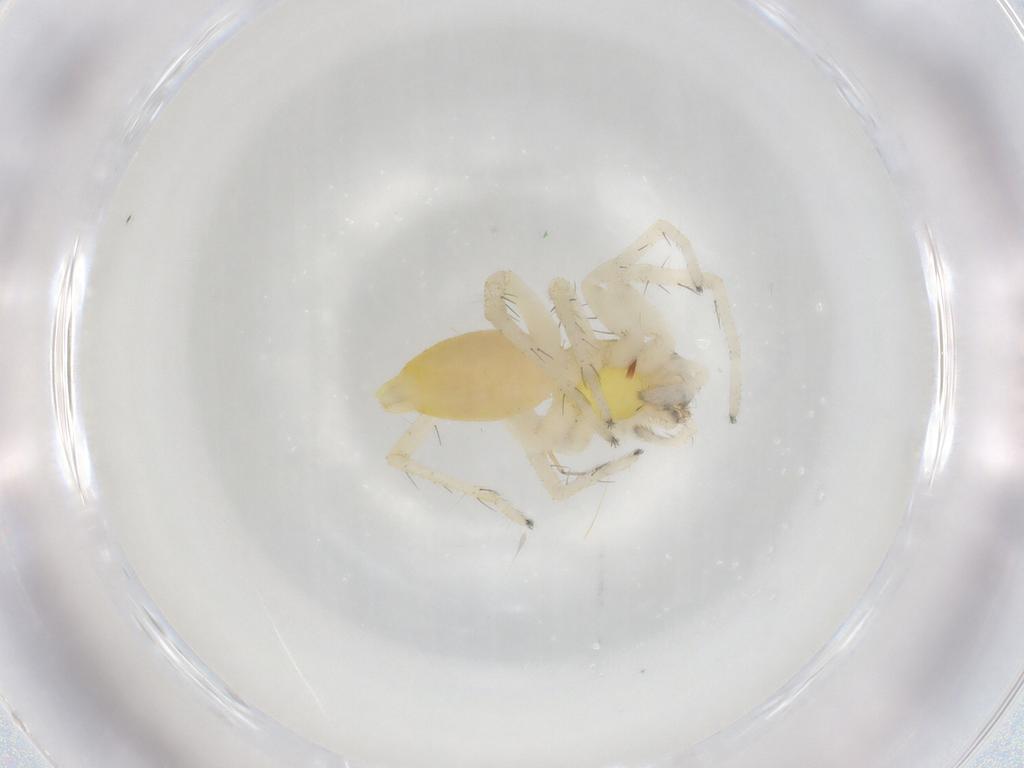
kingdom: Animalia
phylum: Arthropoda
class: Arachnida
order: Araneae
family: Anyphaenidae
